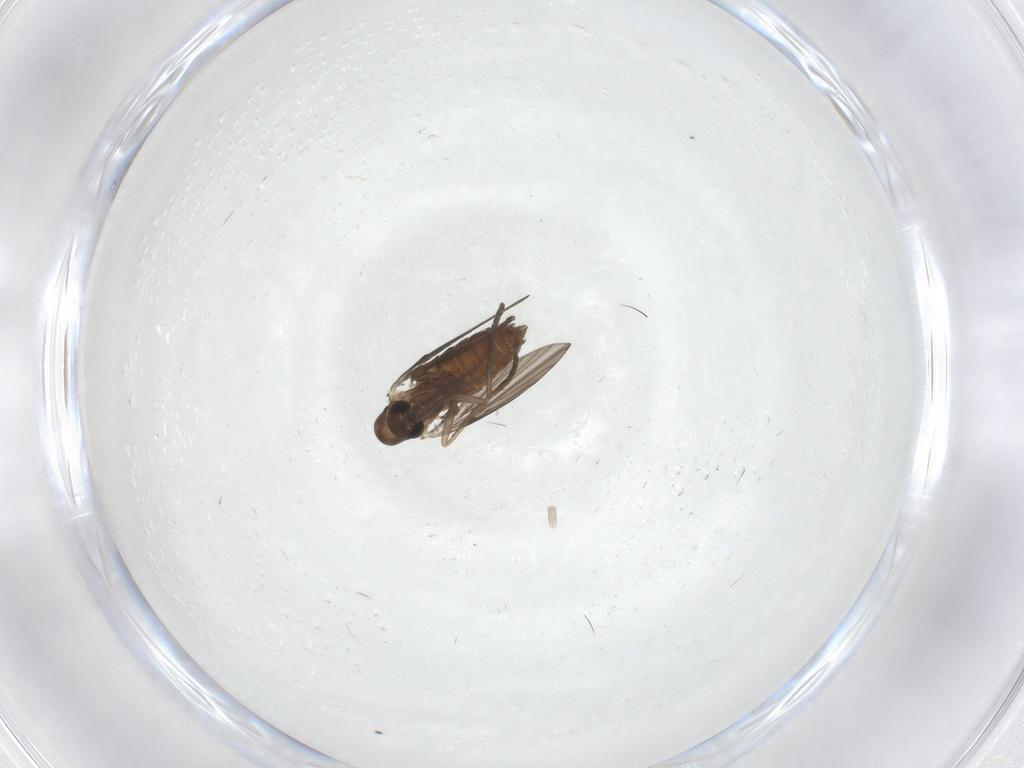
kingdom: Animalia
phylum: Arthropoda
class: Insecta
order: Diptera
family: Psychodidae
